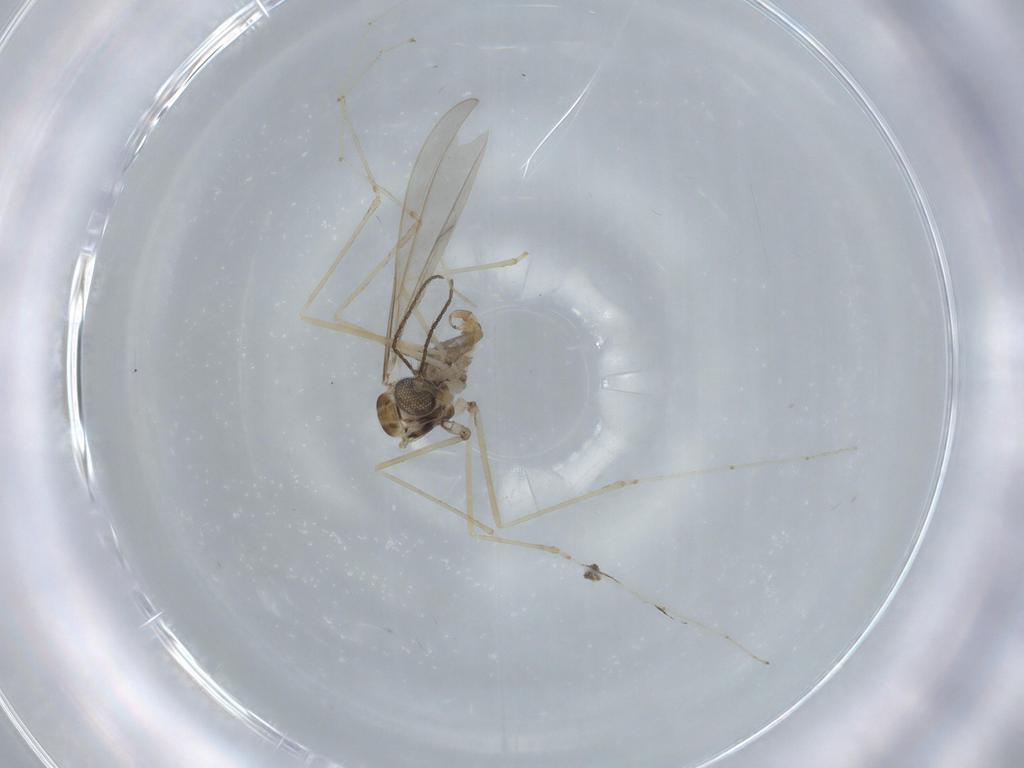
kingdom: Animalia
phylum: Arthropoda
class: Insecta
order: Diptera
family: Cecidomyiidae
